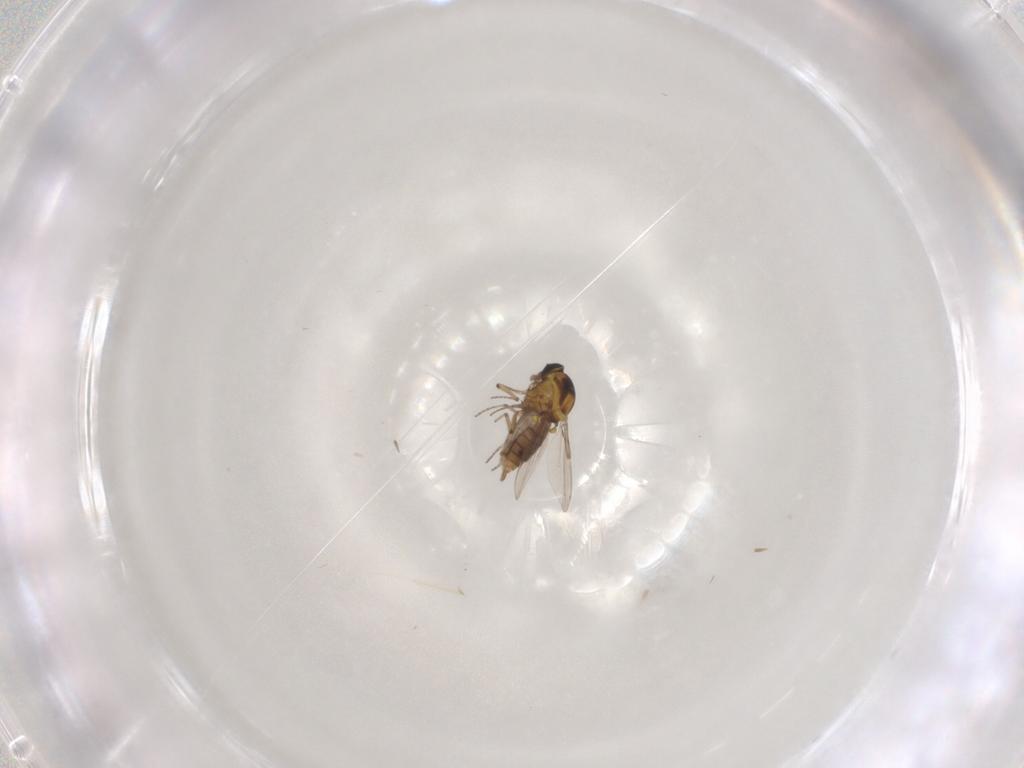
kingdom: Animalia
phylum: Arthropoda
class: Insecta
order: Diptera
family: Ceratopogonidae
